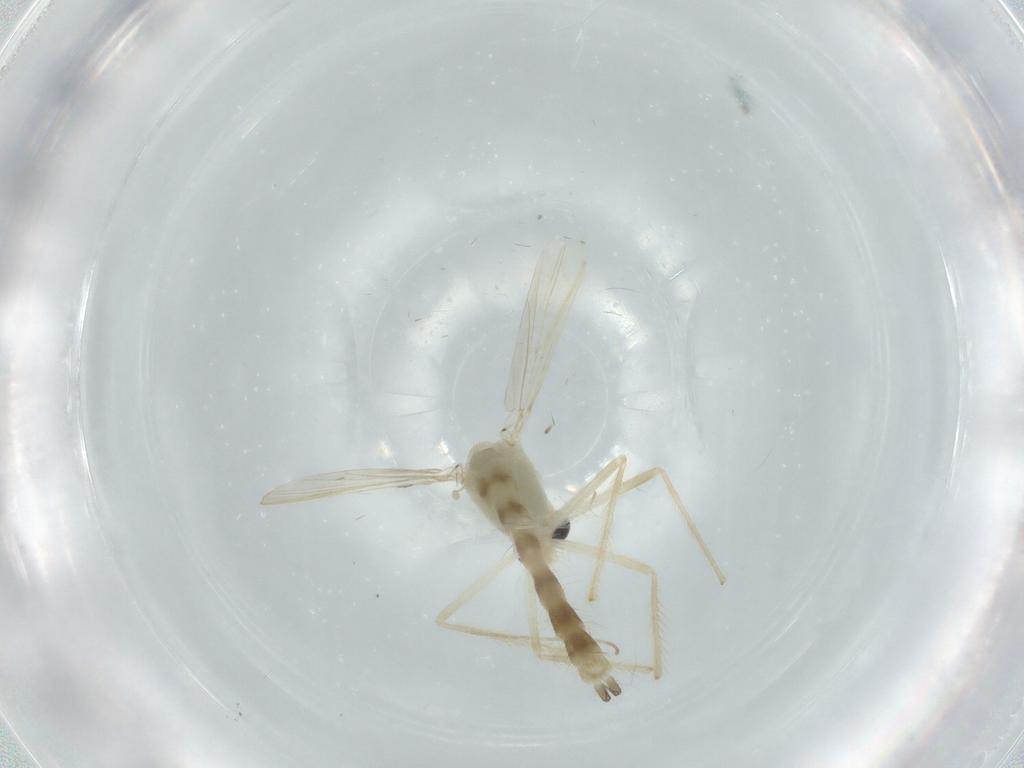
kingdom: Animalia
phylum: Arthropoda
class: Insecta
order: Diptera
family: Chironomidae
